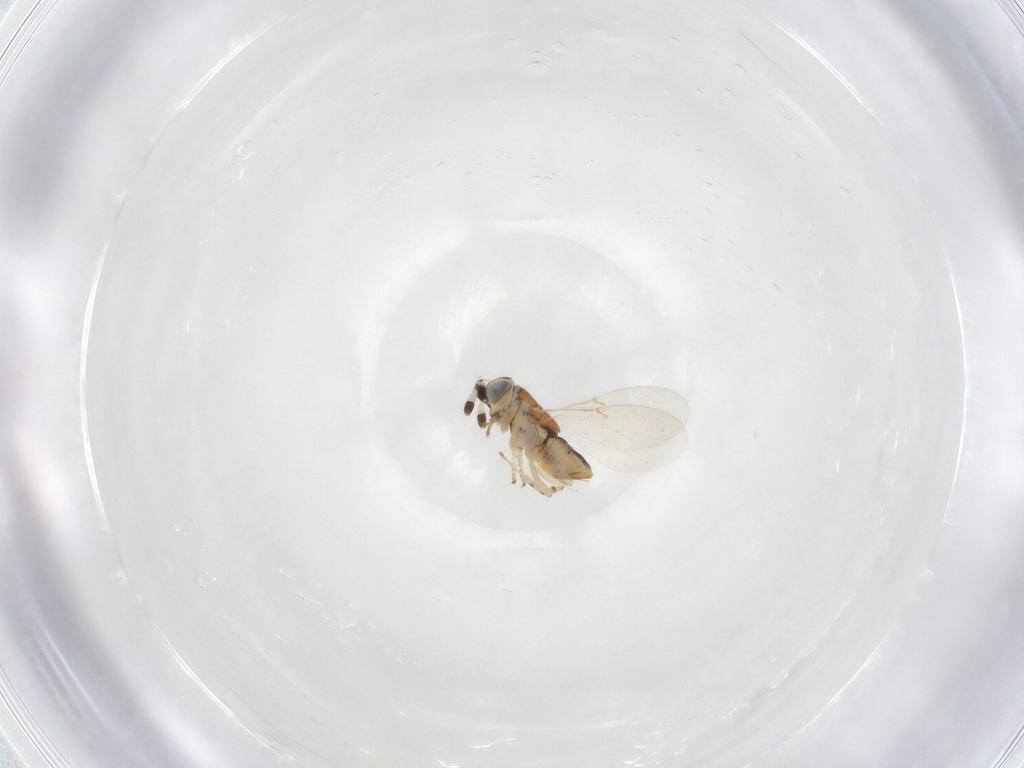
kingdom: Animalia
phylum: Arthropoda
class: Insecta
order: Hymenoptera
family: Encyrtidae
